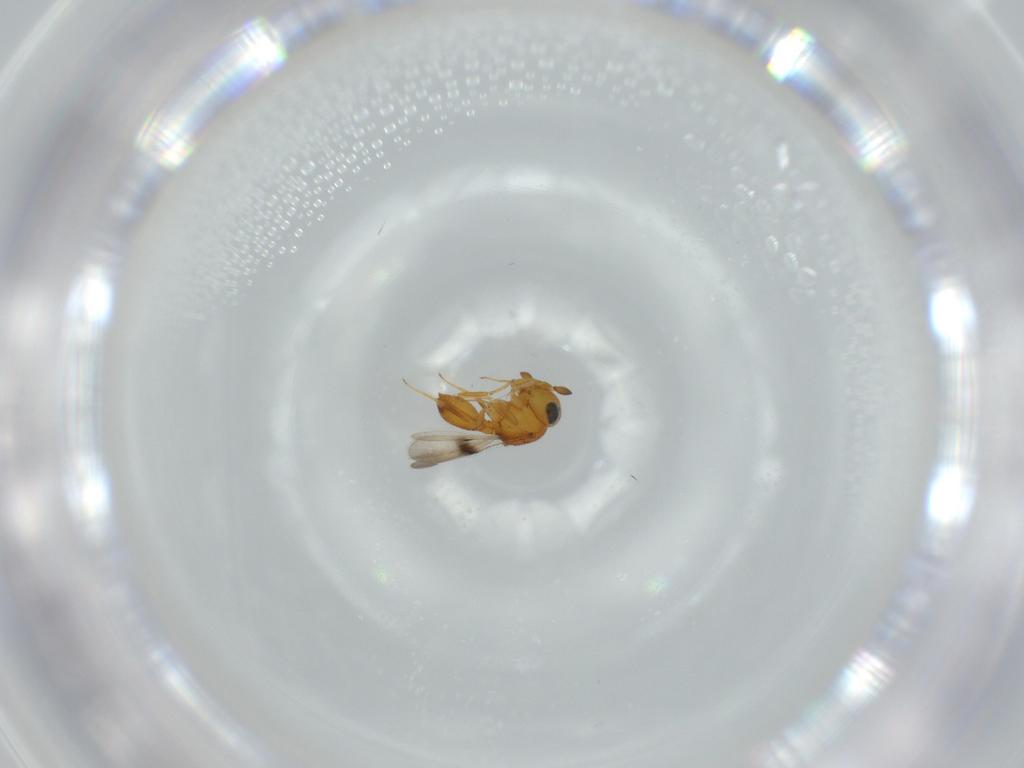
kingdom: Animalia
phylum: Arthropoda
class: Insecta
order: Hymenoptera
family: Scelionidae
